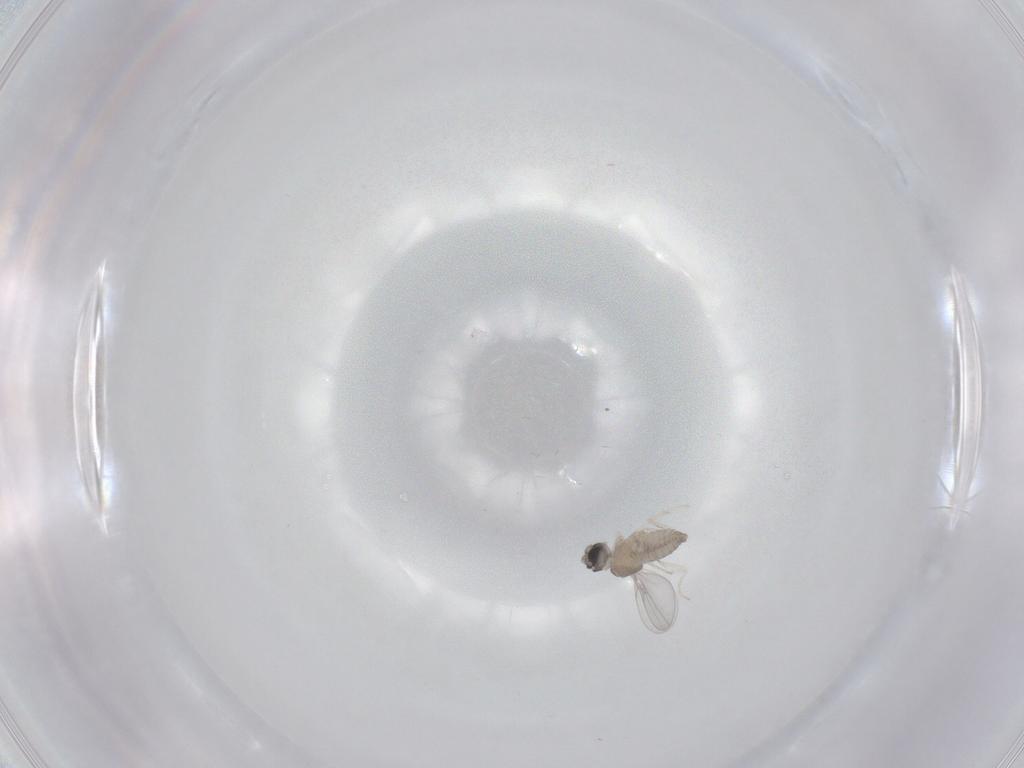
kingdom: Animalia
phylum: Arthropoda
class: Insecta
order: Diptera
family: Cecidomyiidae
